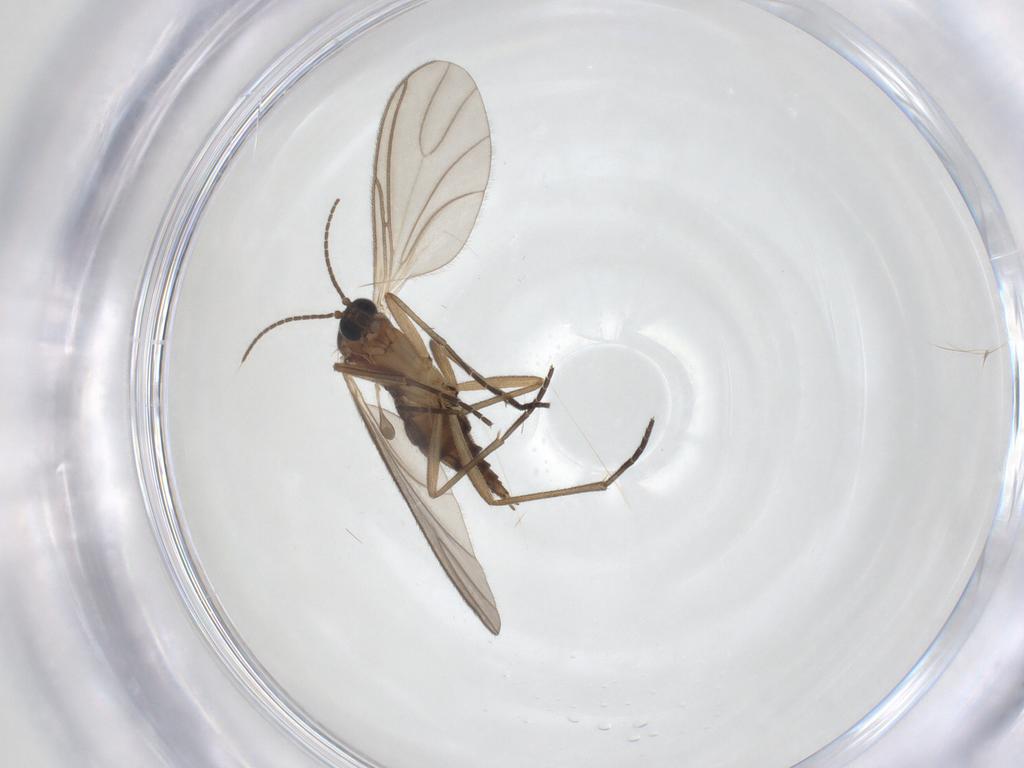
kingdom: Animalia
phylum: Arthropoda
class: Insecta
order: Diptera
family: Sciaridae
